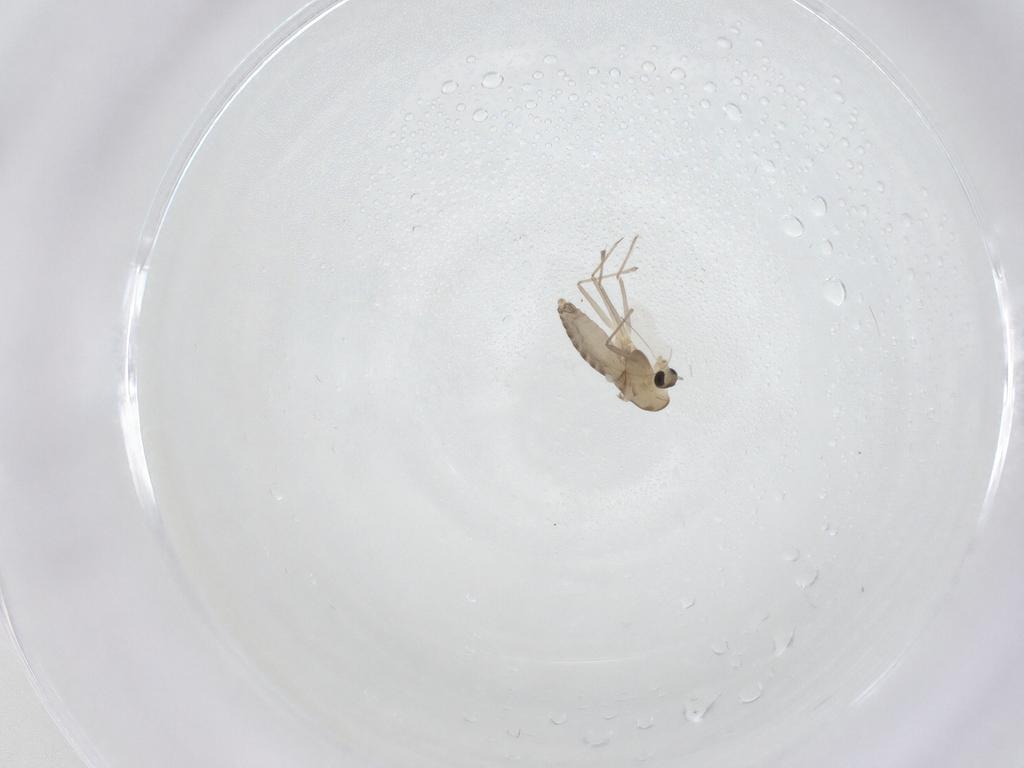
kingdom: Animalia
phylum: Arthropoda
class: Insecta
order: Diptera
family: Chironomidae
